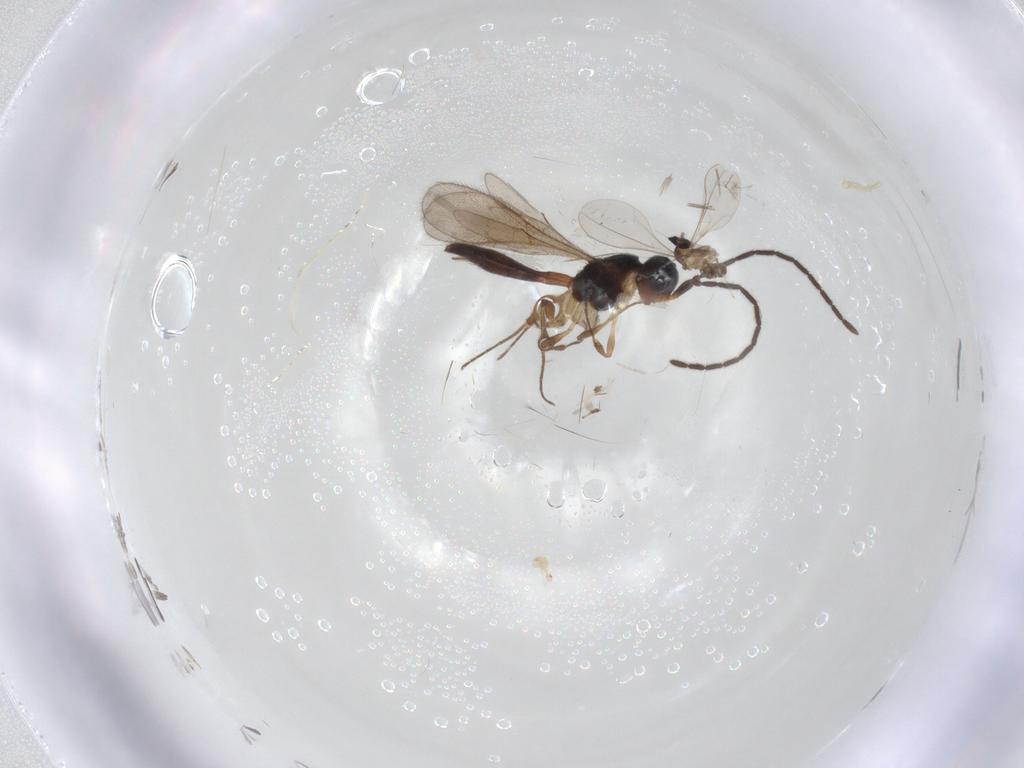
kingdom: Animalia
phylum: Arthropoda
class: Insecta
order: Diptera
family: Cecidomyiidae
